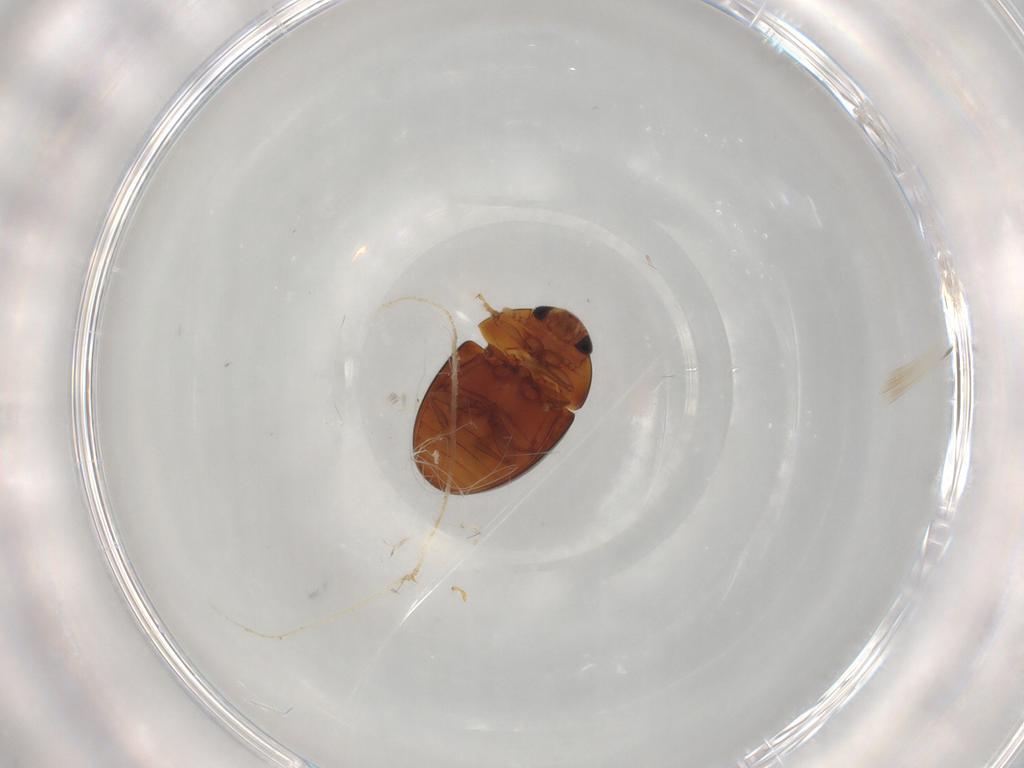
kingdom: Animalia
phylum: Arthropoda
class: Insecta
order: Coleoptera
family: Phalacridae
